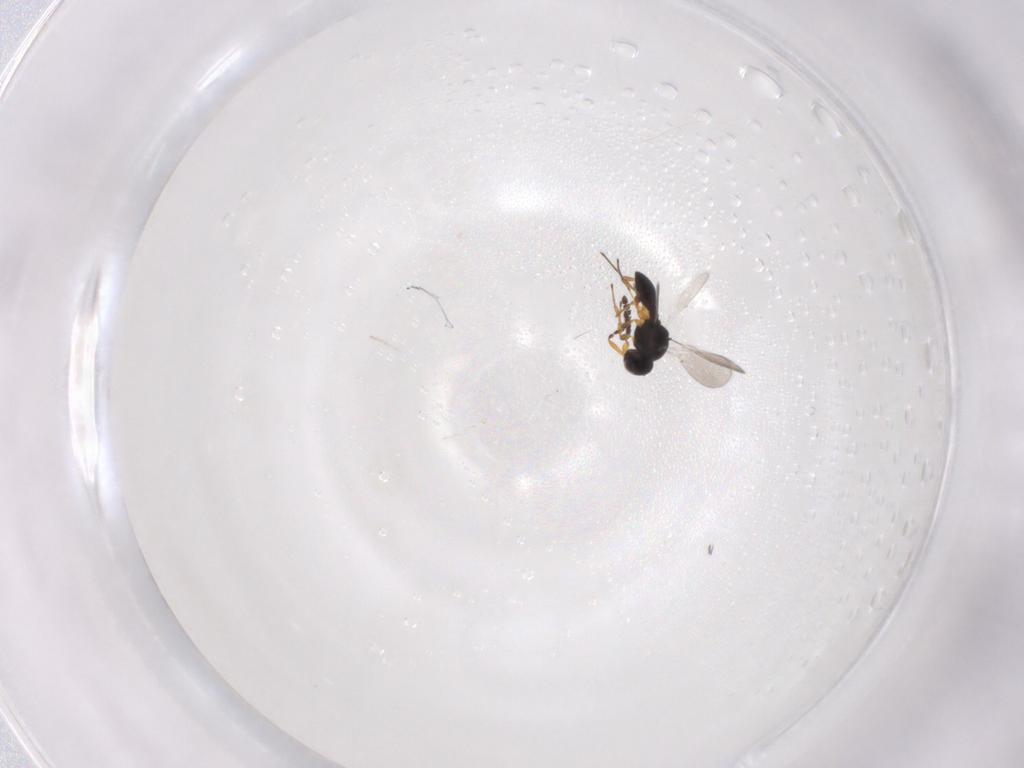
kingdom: Animalia
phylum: Arthropoda
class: Insecta
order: Hymenoptera
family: Platygastridae
